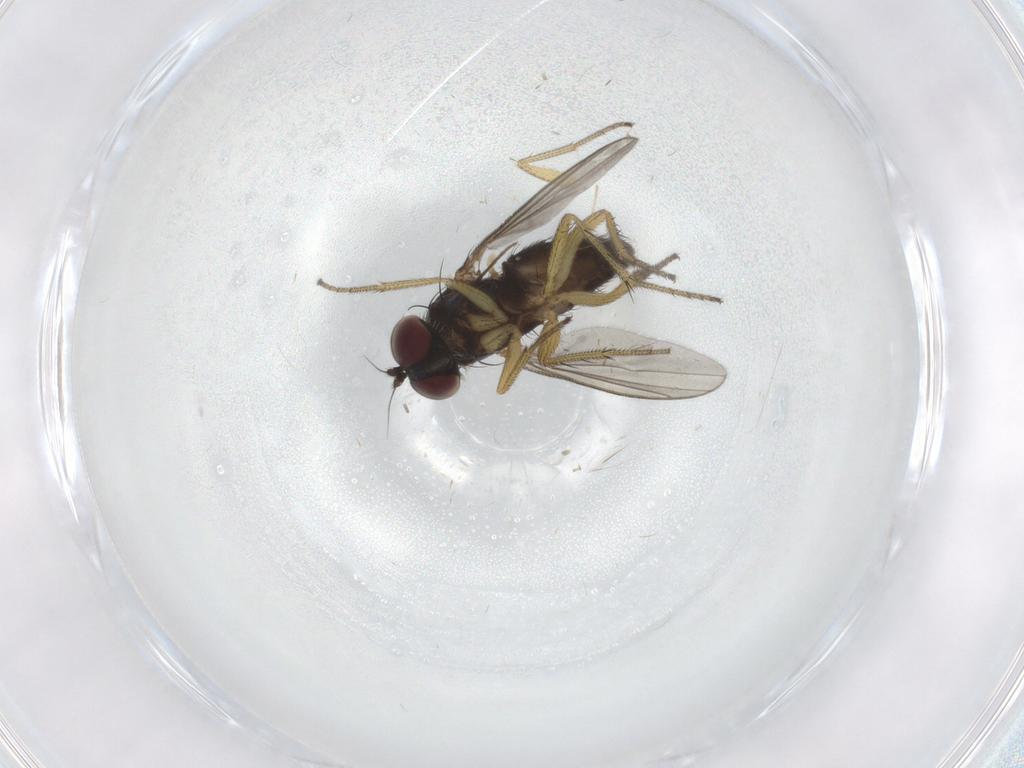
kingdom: Animalia
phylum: Arthropoda
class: Insecta
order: Diptera
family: Chironomidae
